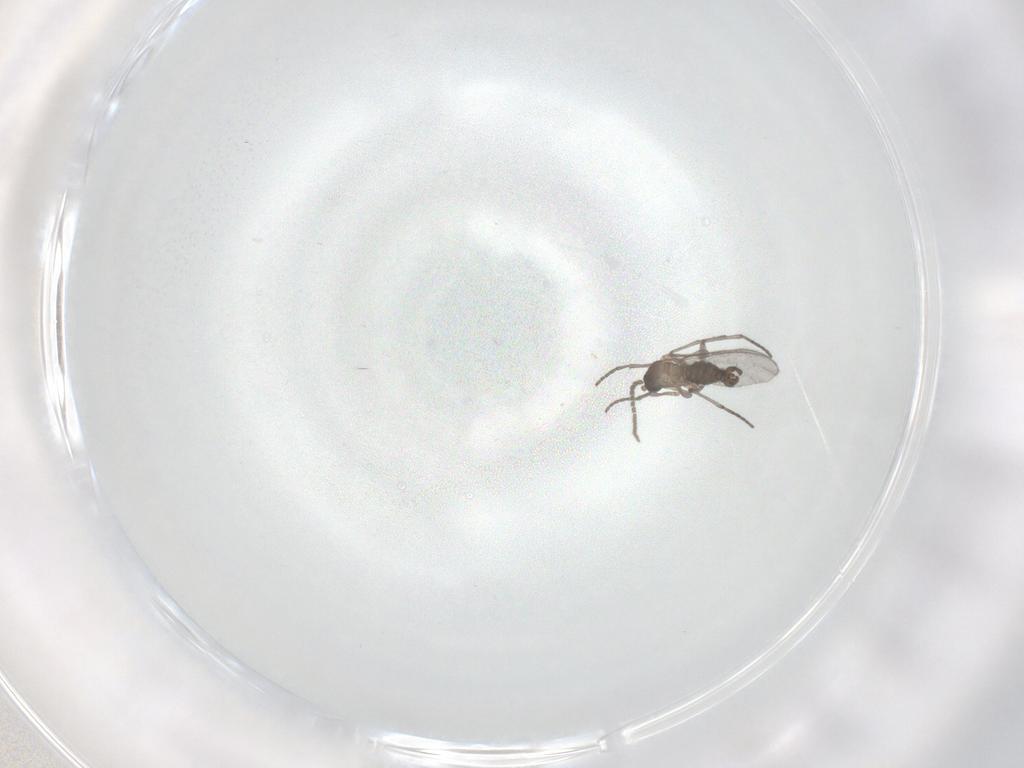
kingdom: Animalia
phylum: Arthropoda
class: Insecta
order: Diptera
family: Sciaridae
